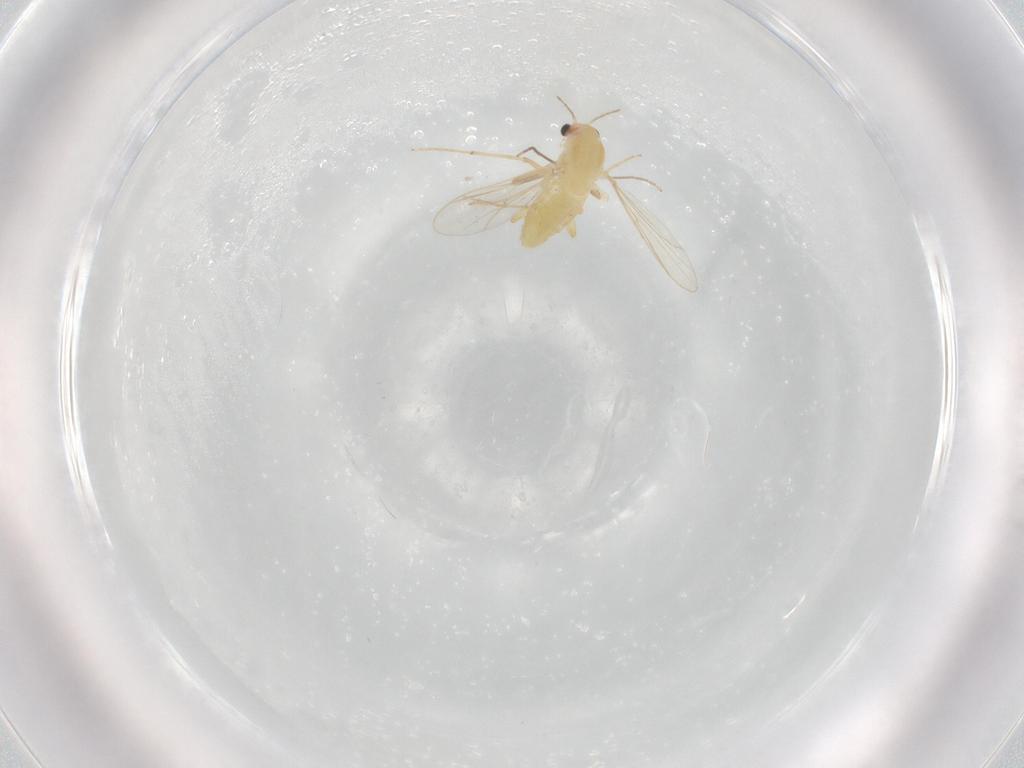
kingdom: Animalia
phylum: Arthropoda
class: Insecta
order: Diptera
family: Chironomidae
